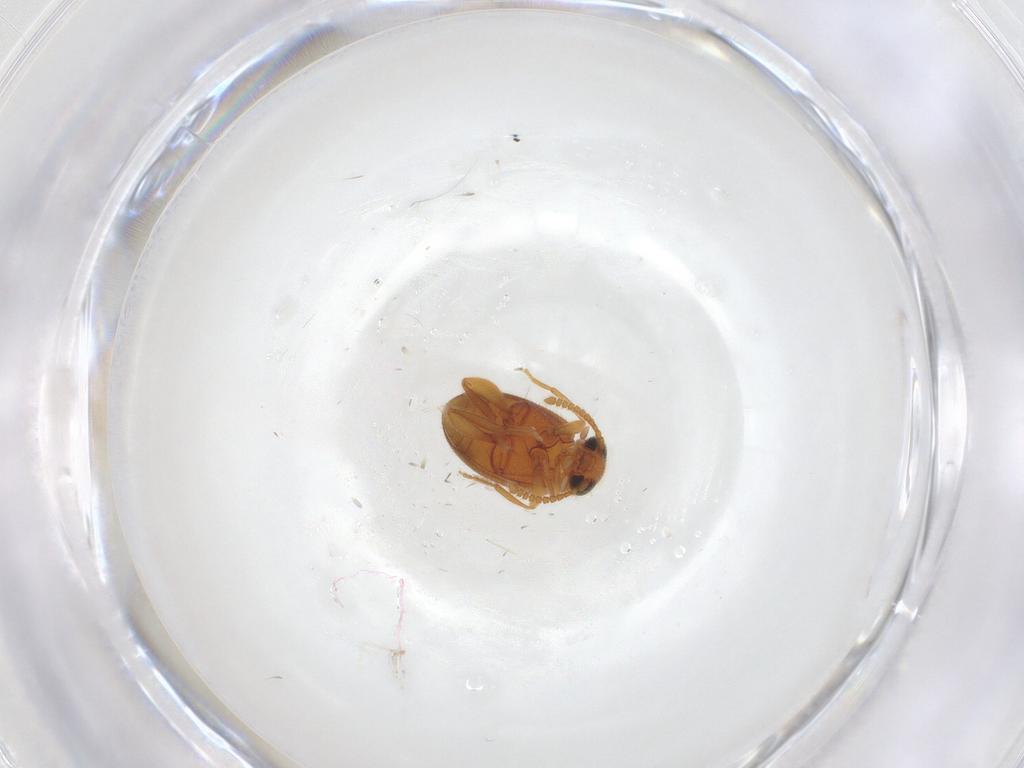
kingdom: Animalia
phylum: Arthropoda
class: Insecta
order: Coleoptera
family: Aderidae
